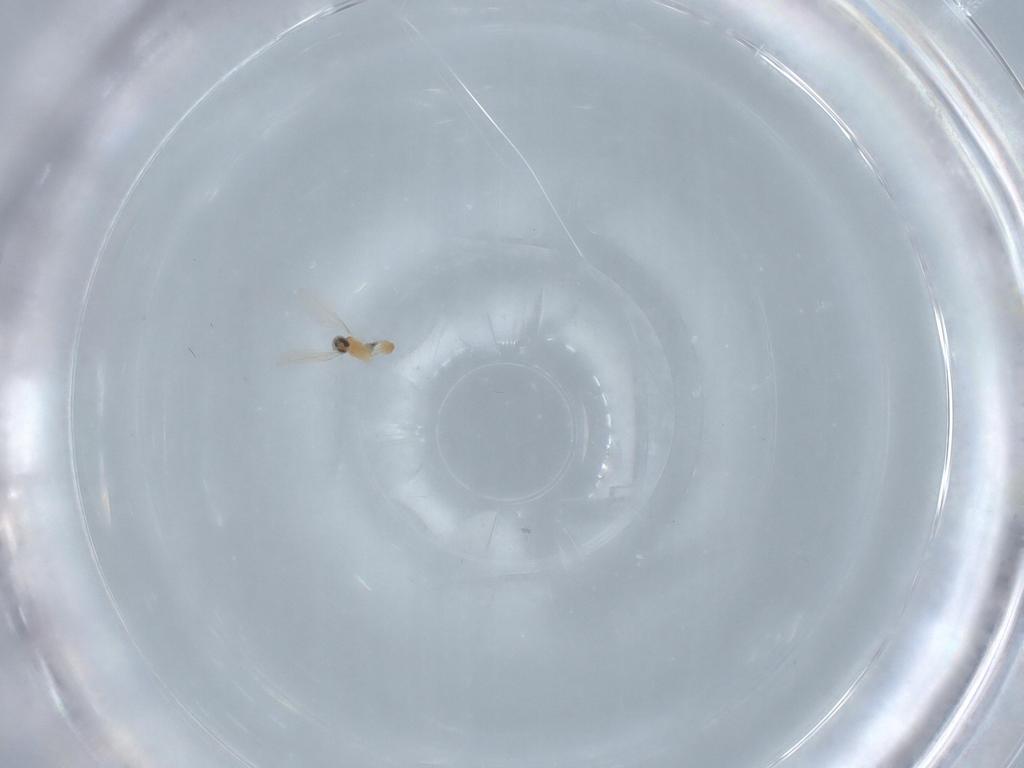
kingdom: Animalia
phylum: Arthropoda
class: Insecta
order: Diptera
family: Cecidomyiidae
